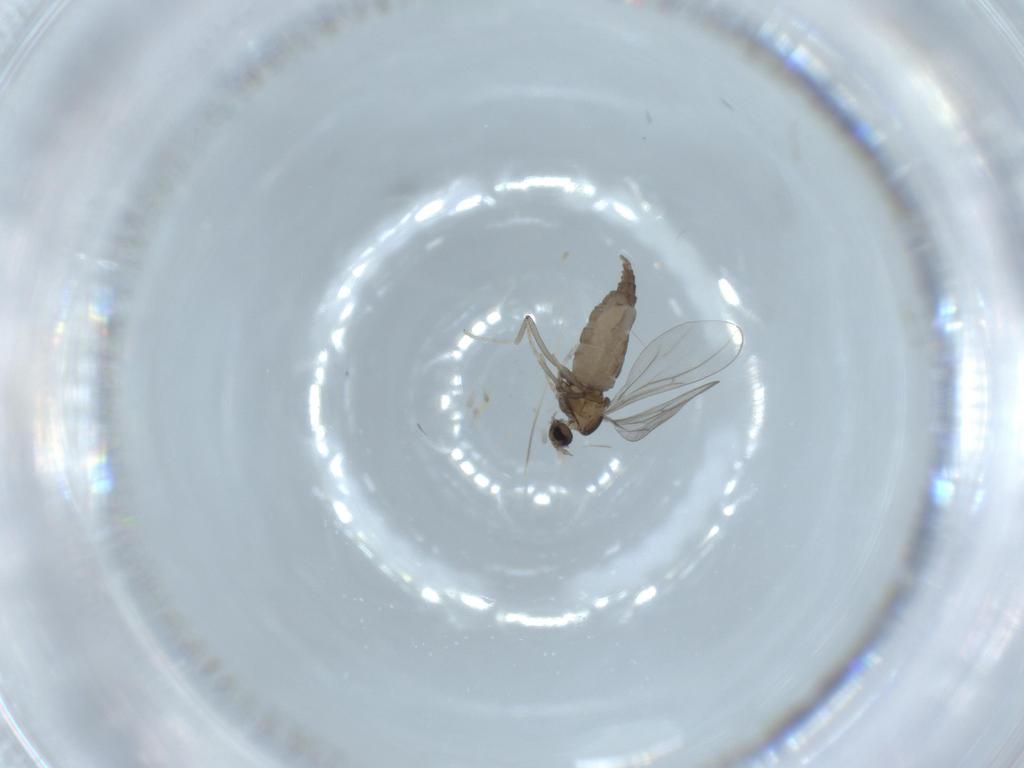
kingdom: Animalia
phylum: Arthropoda
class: Insecta
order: Diptera
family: Cecidomyiidae
